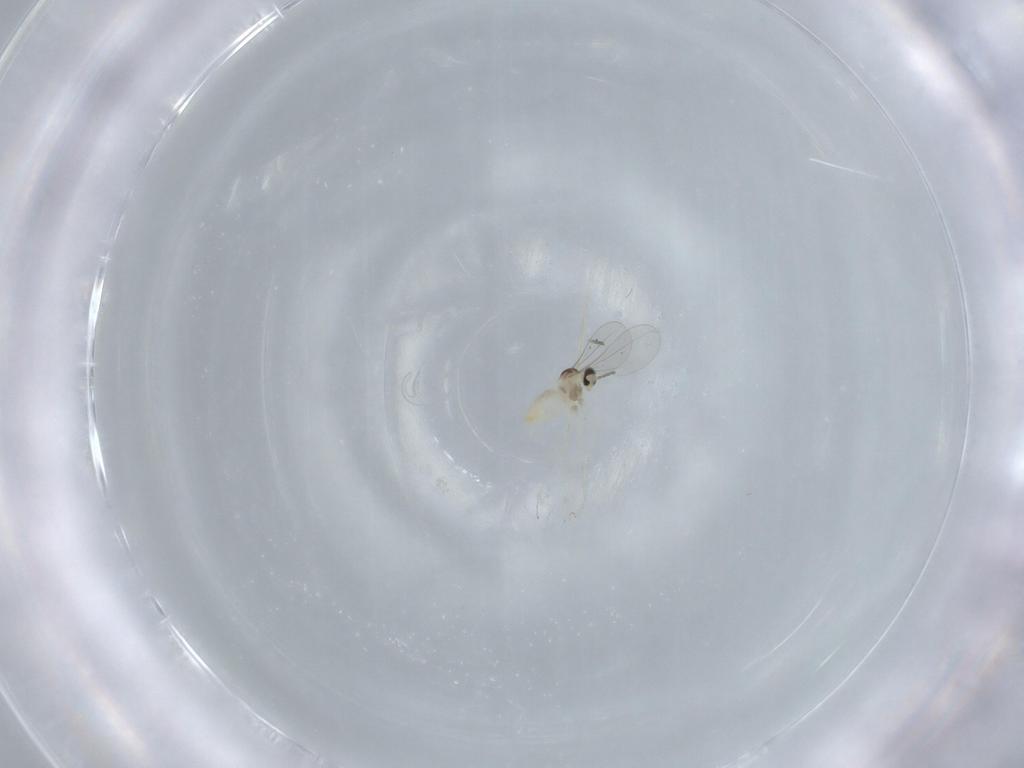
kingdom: Animalia
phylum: Arthropoda
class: Insecta
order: Diptera
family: Cecidomyiidae
